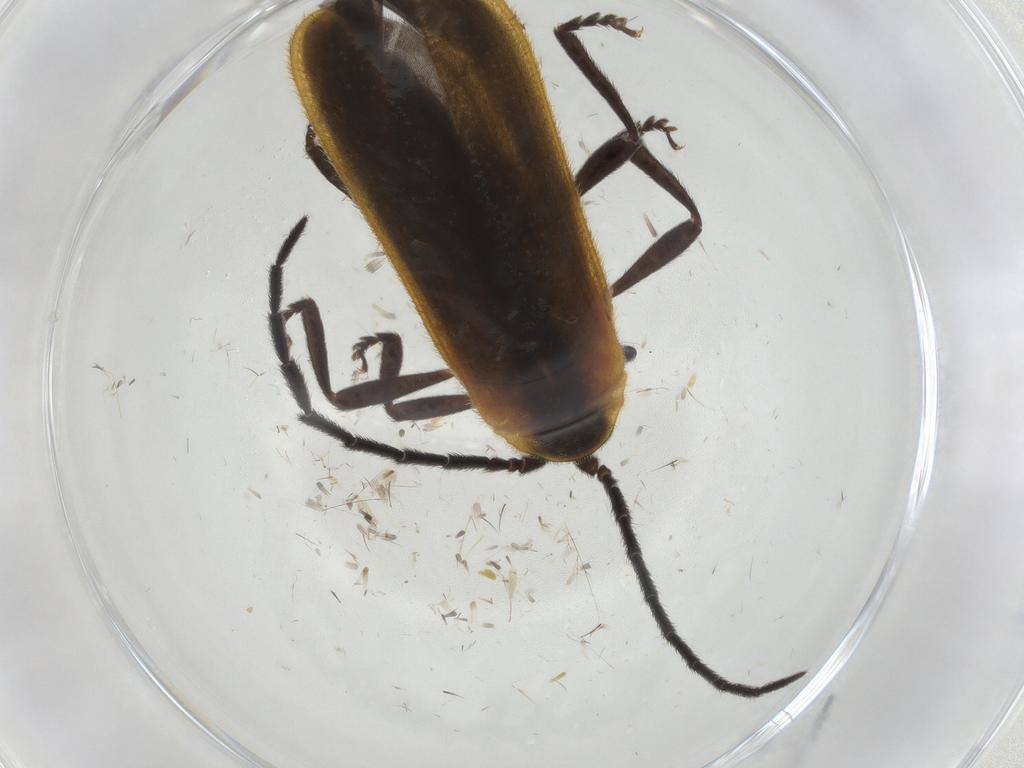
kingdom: Animalia
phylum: Arthropoda
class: Insecta
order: Coleoptera
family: Lycidae
